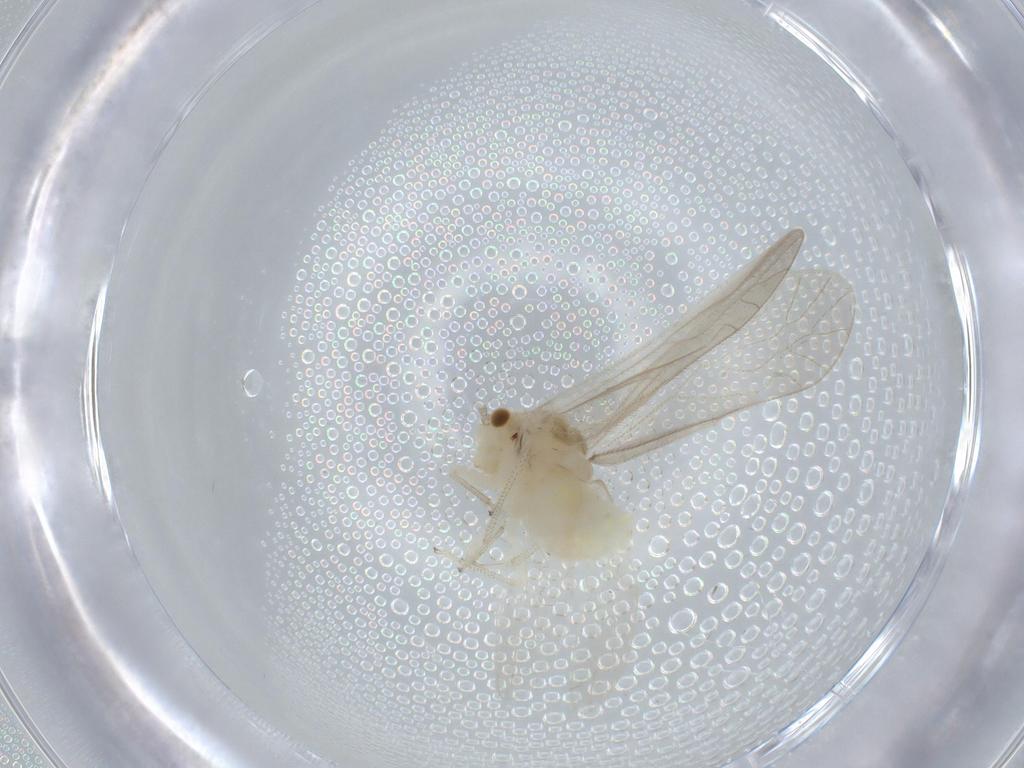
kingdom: Animalia
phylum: Arthropoda
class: Insecta
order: Psocodea
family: Caeciliusidae
